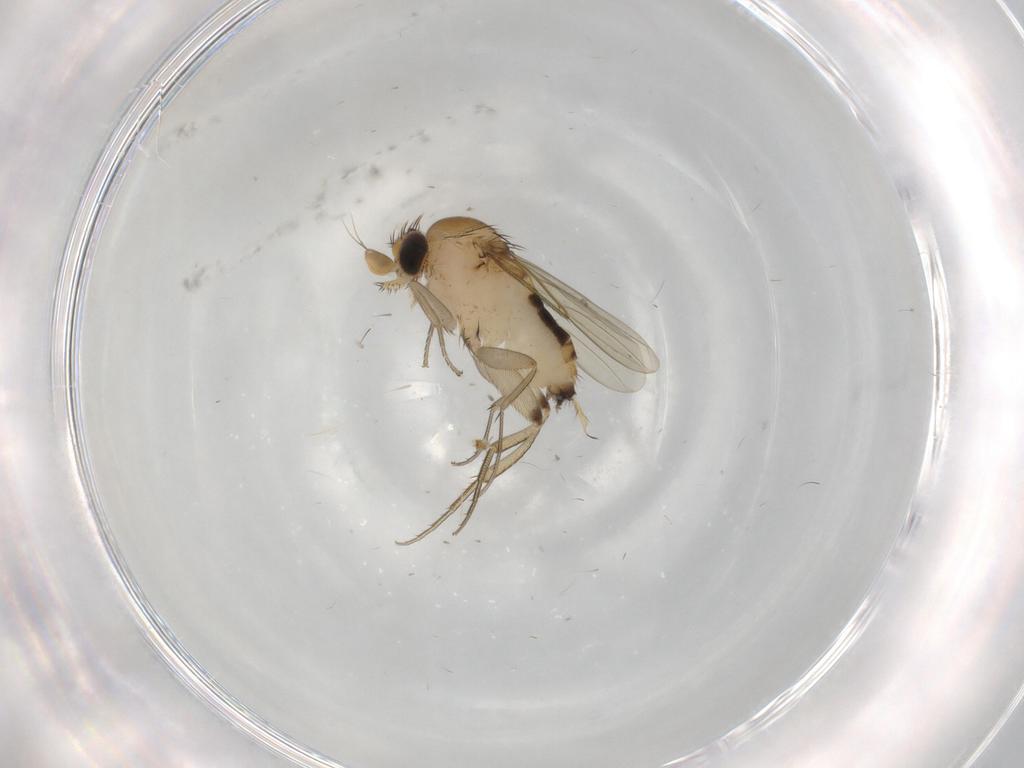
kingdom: Animalia
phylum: Arthropoda
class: Insecta
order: Diptera
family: Phoridae
